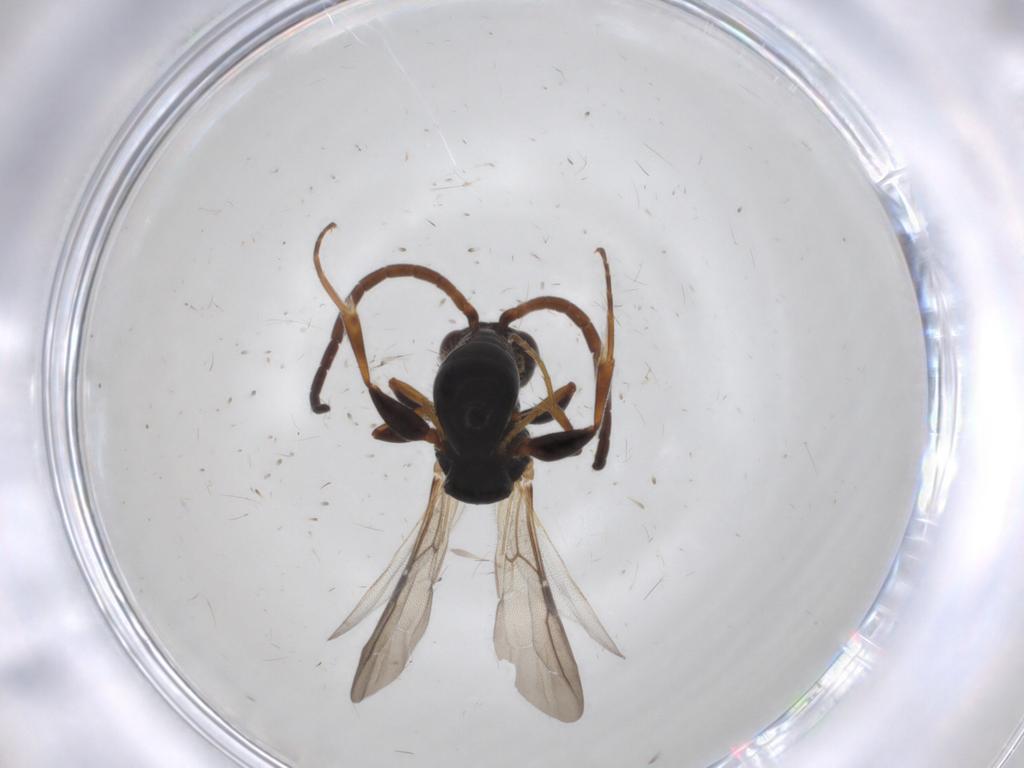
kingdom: Animalia
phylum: Arthropoda
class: Insecta
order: Hymenoptera
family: Bethylidae
